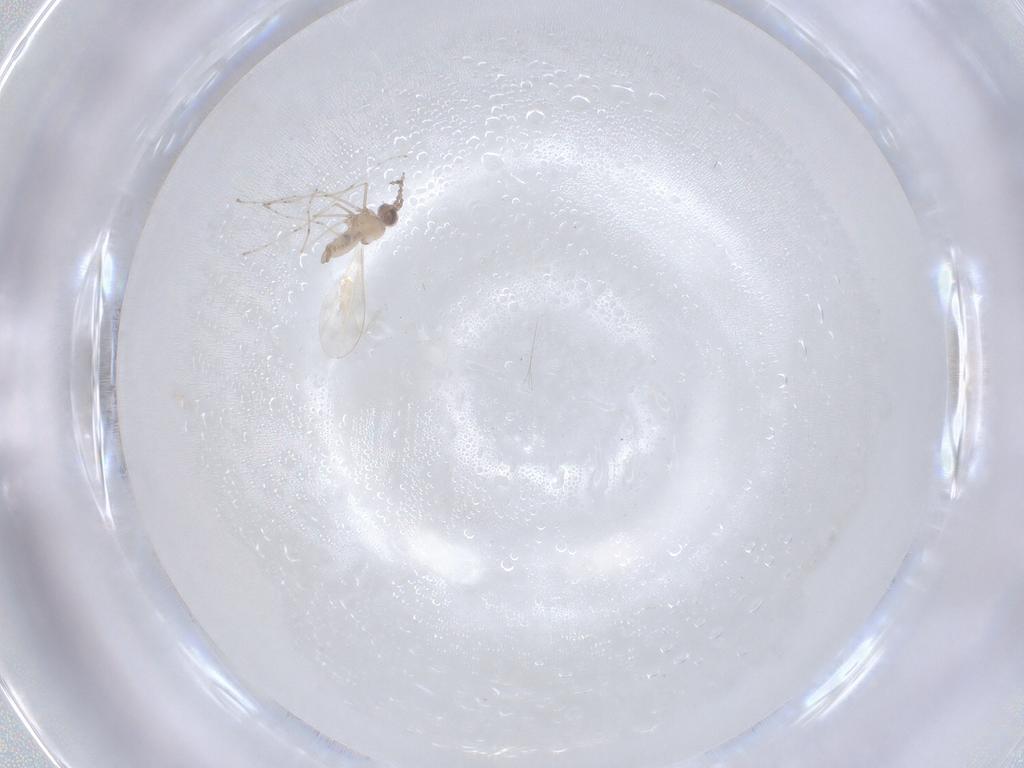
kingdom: Animalia
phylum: Arthropoda
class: Insecta
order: Diptera
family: Cecidomyiidae
